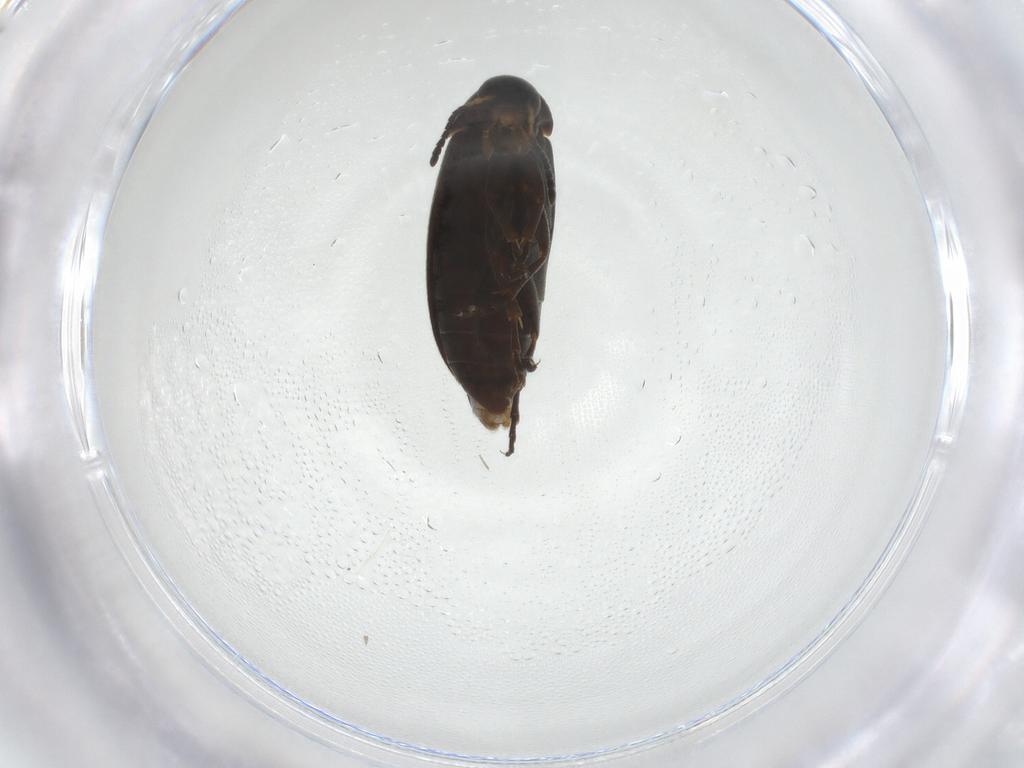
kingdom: Animalia
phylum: Arthropoda
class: Insecta
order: Coleoptera
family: Scraptiidae
